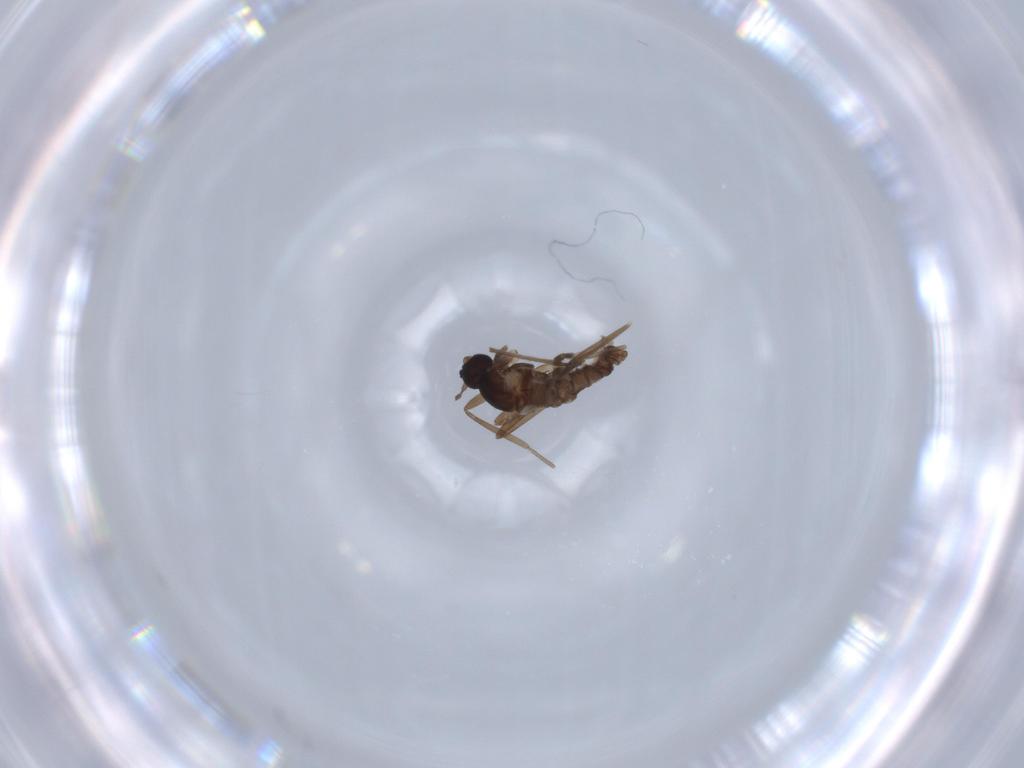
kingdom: Animalia
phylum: Arthropoda
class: Insecta
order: Diptera
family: Cecidomyiidae
